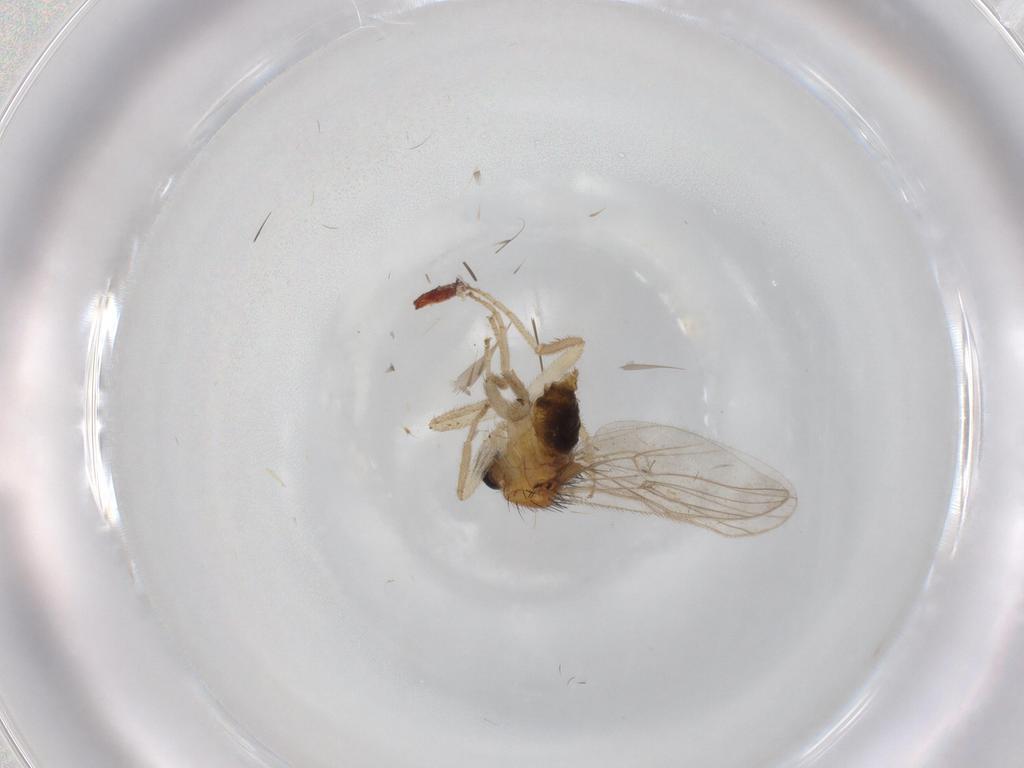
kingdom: Animalia
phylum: Arthropoda
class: Insecta
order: Diptera
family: Hybotidae
